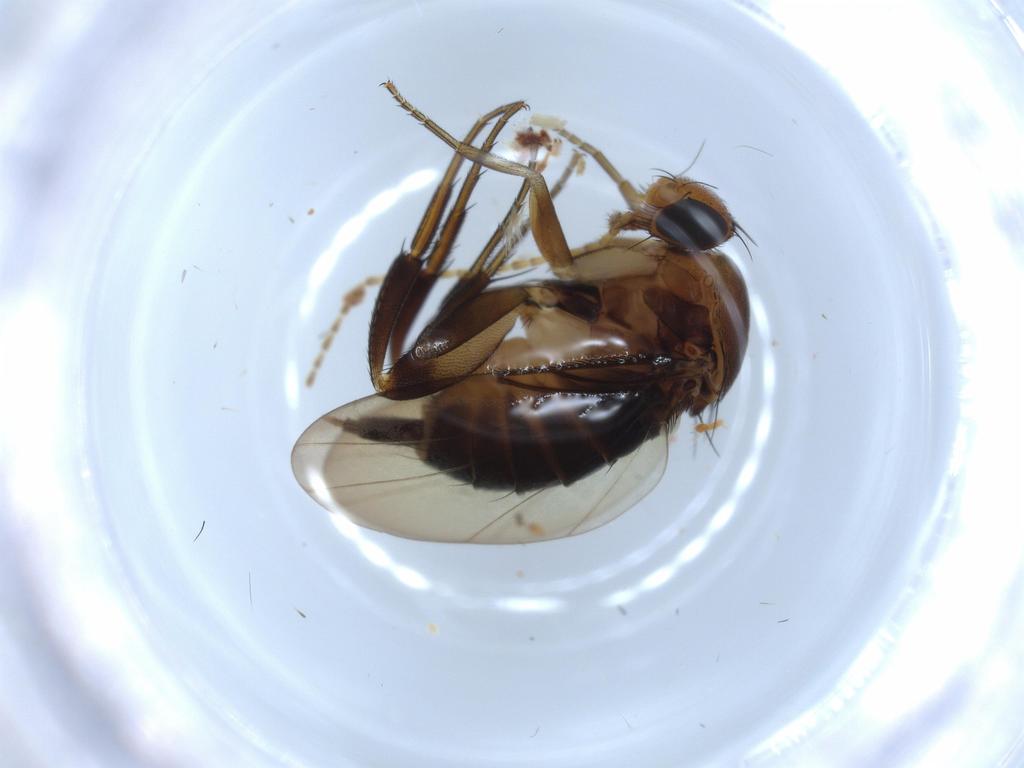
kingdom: Animalia
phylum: Arthropoda
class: Insecta
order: Diptera
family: Phoridae
